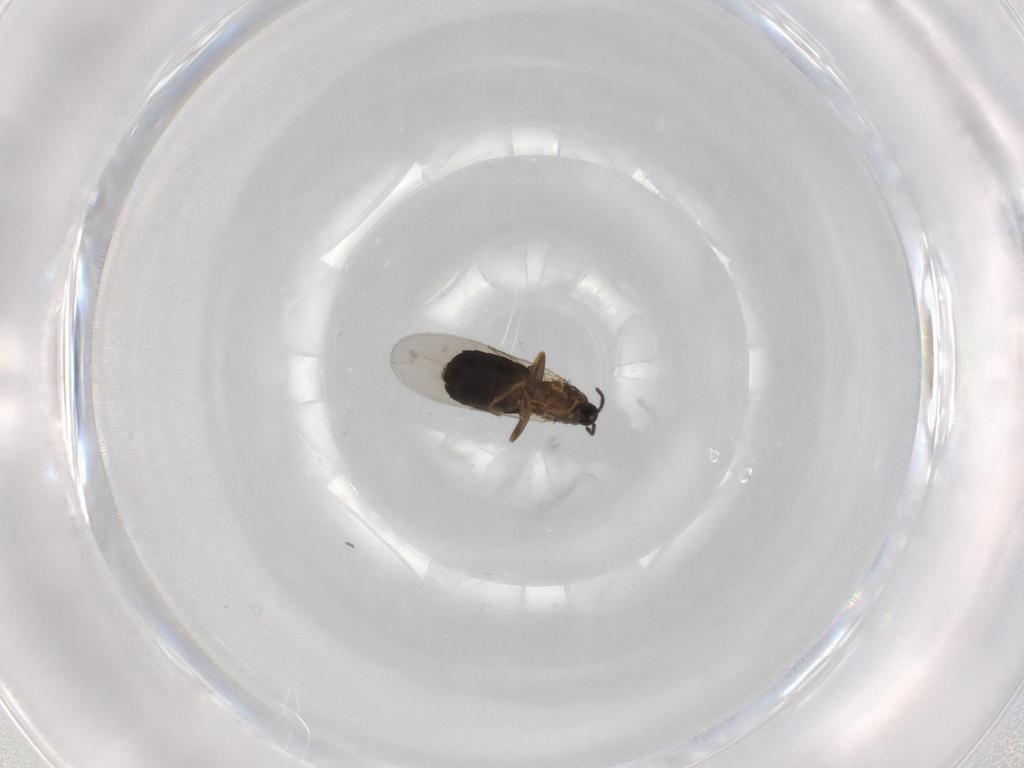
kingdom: Animalia
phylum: Arthropoda
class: Insecta
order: Diptera
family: Scatopsidae
